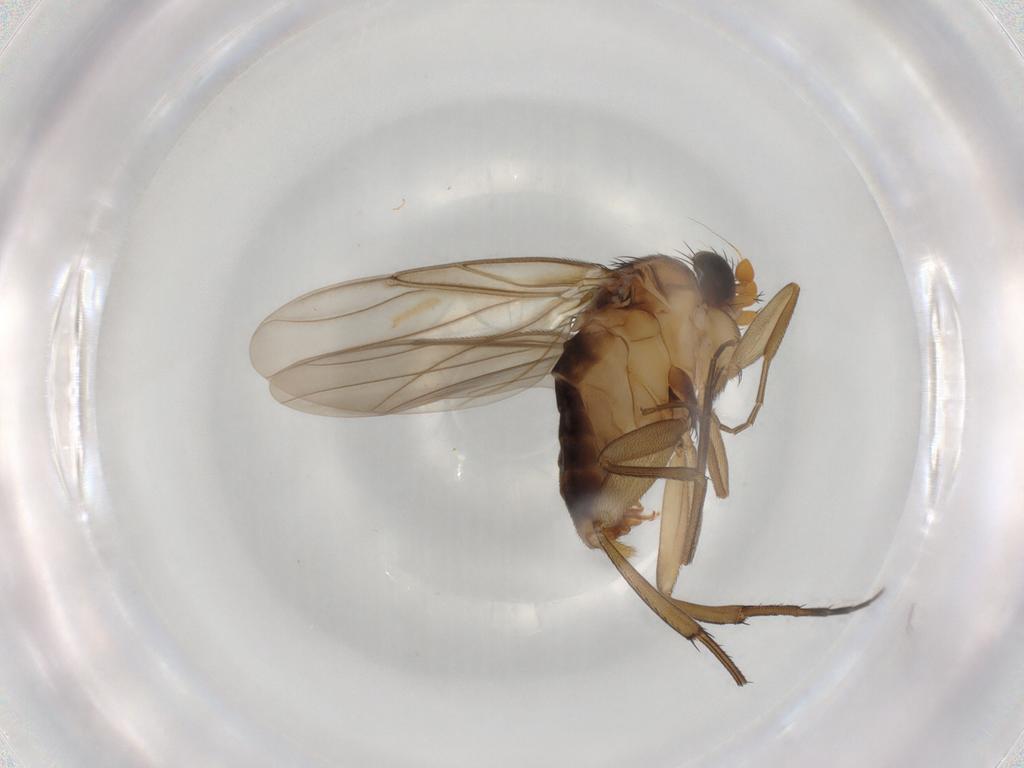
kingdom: Animalia
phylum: Arthropoda
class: Insecta
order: Diptera
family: Phoridae
